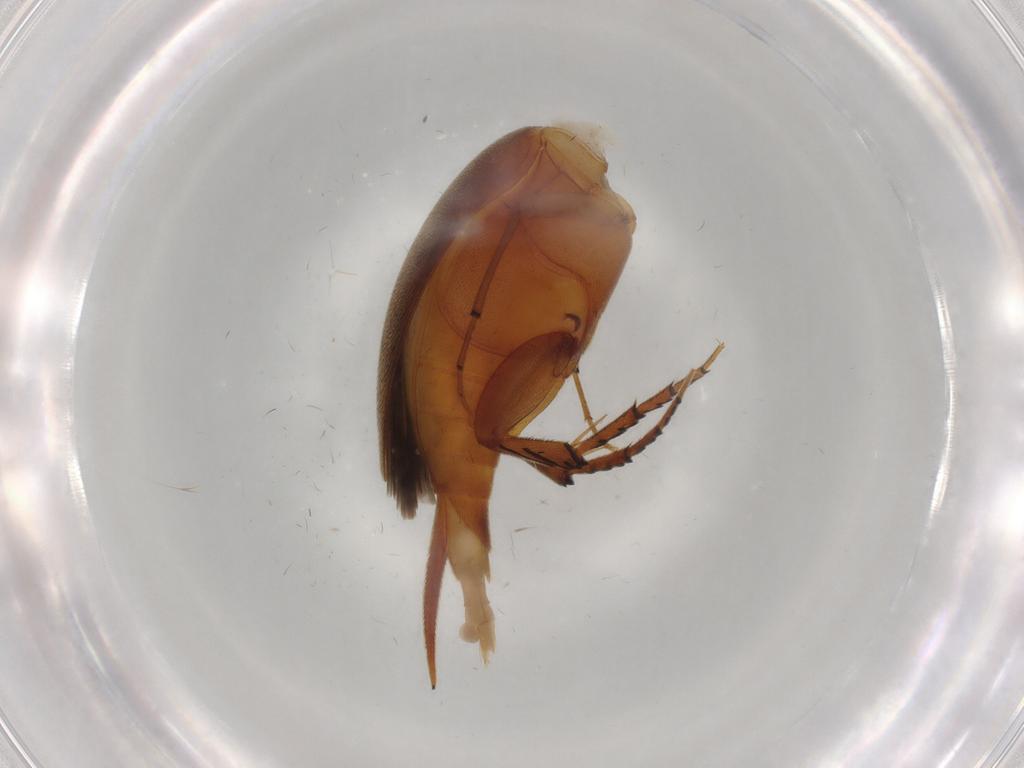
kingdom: Animalia
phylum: Arthropoda
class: Insecta
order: Coleoptera
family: Mordellidae
